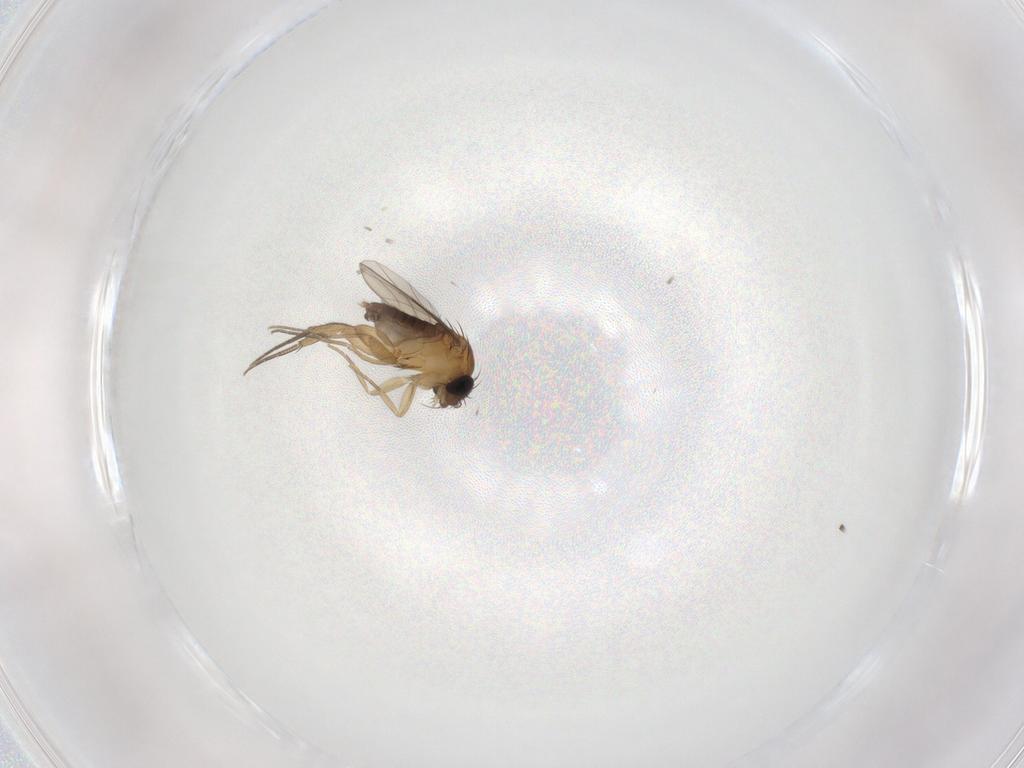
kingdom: Animalia
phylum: Arthropoda
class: Insecta
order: Diptera
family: Phoridae
